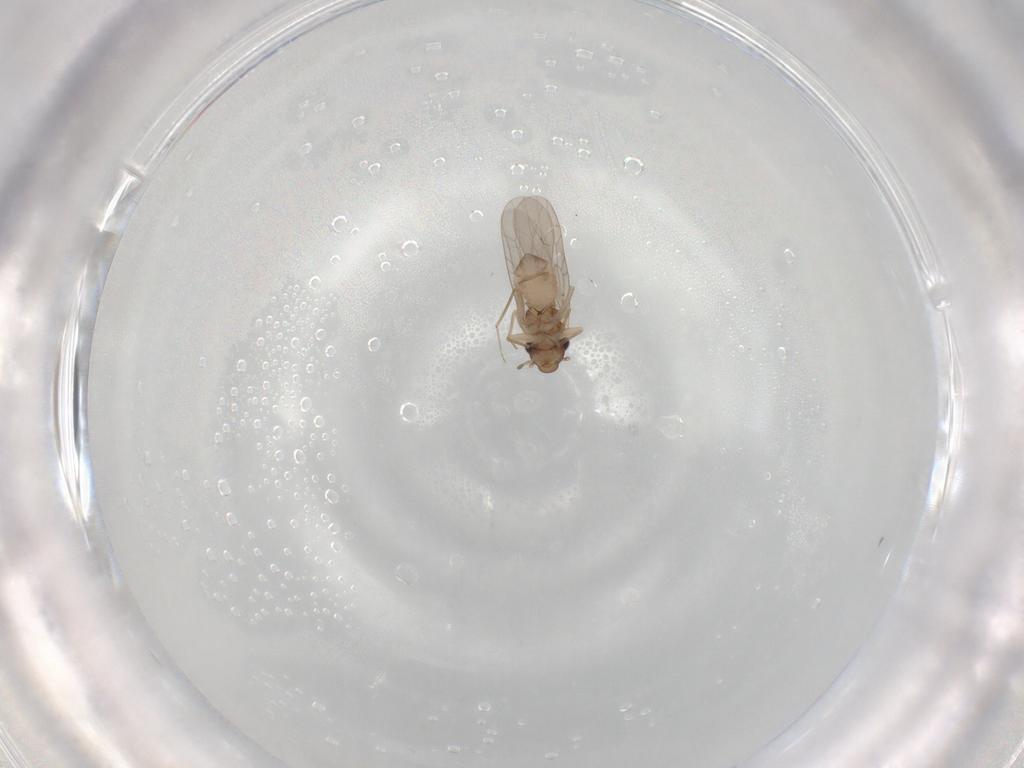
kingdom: Animalia
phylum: Arthropoda
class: Insecta
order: Psocodea
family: Lepidopsocidae
